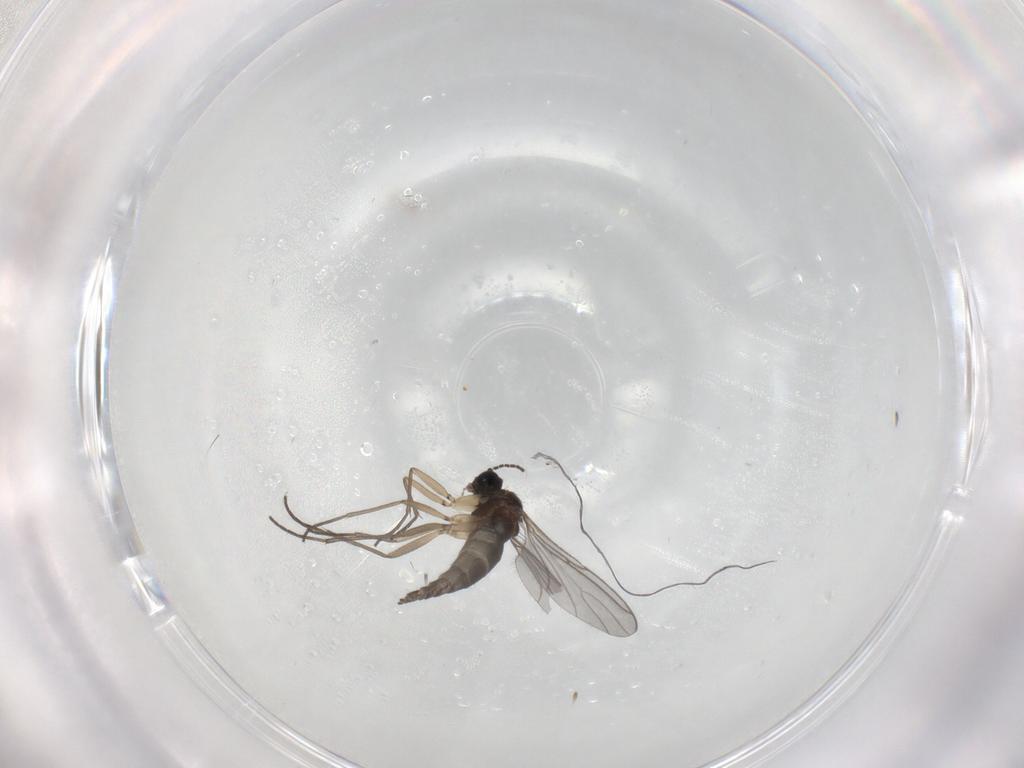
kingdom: Animalia
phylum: Arthropoda
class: Insecta
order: Diptera
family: Sciaridae
